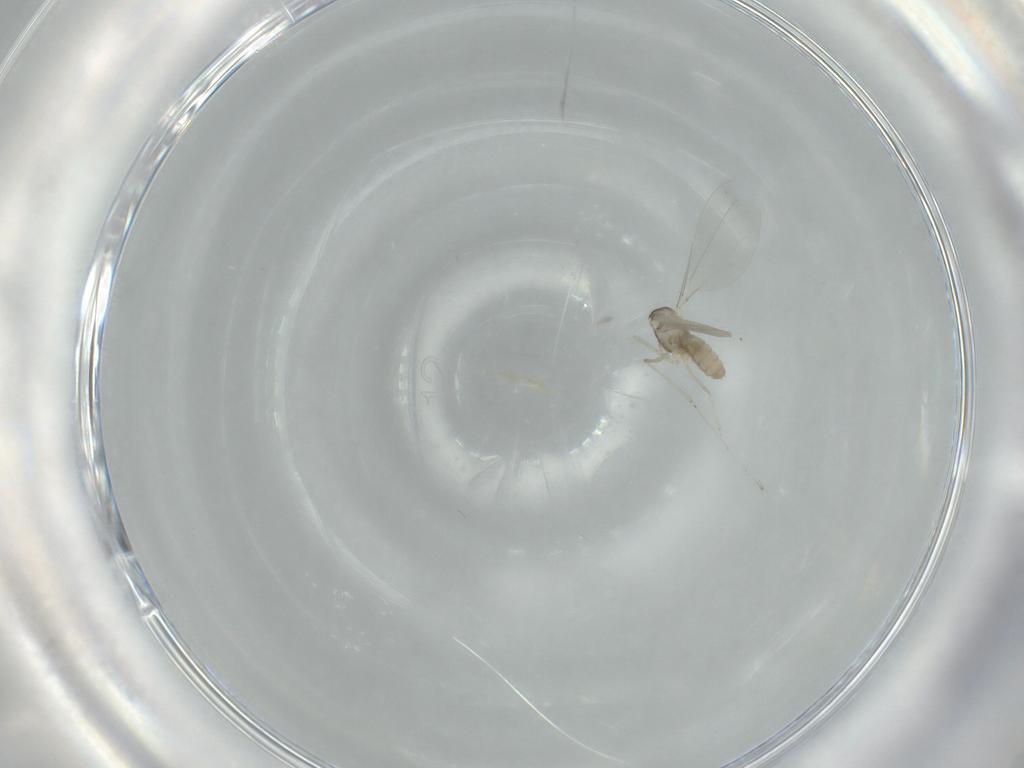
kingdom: Animalia
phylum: Arthropoda
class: Insecta
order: Diptera
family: Cecidomyiidae
